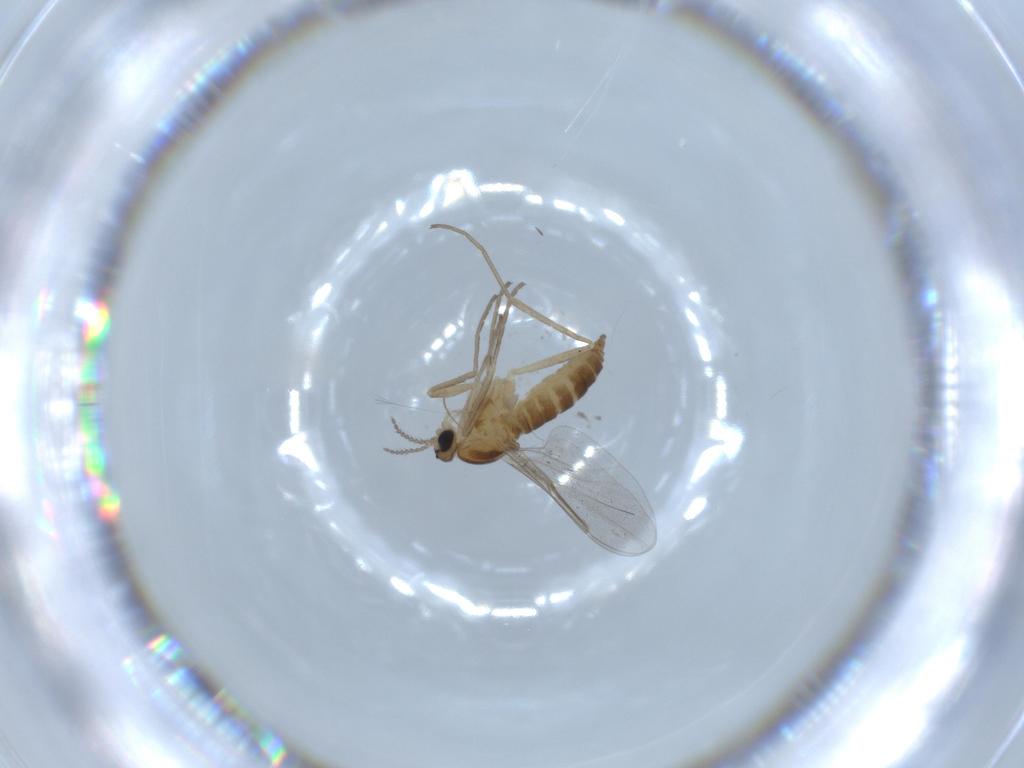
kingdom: Animalia
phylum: Arthropoda
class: Insecta
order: Diptera
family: Cecidomyiidae
